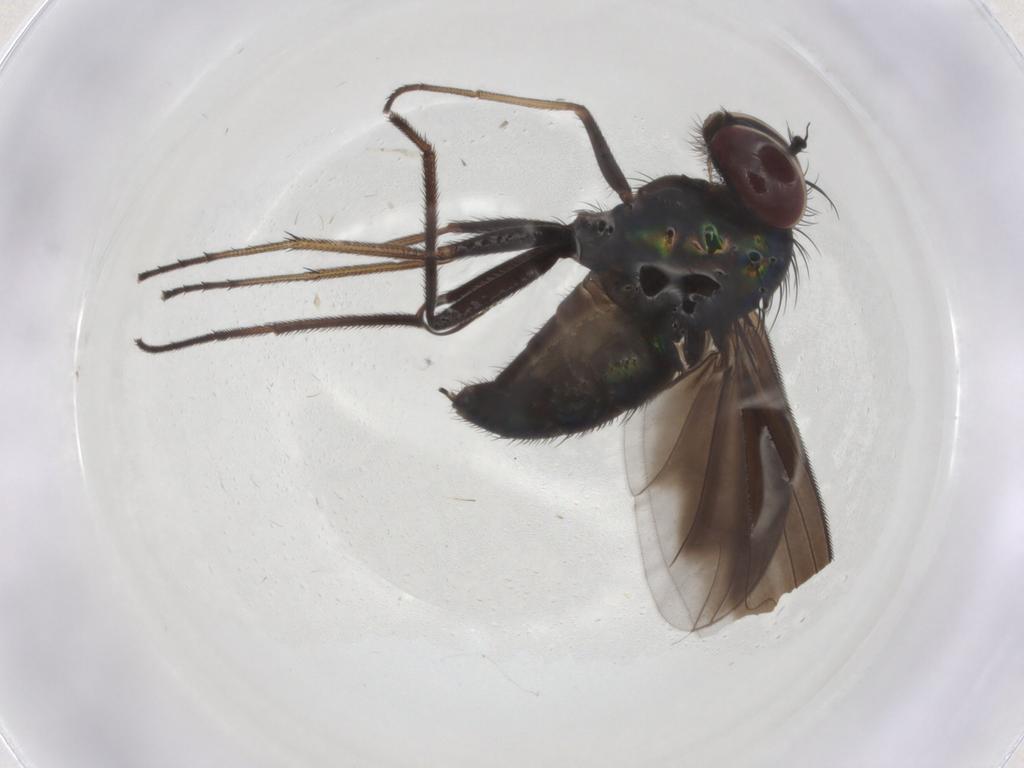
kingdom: Animalia
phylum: Arthropoda
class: Insecta
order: Diptera
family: Dolichopodidae
